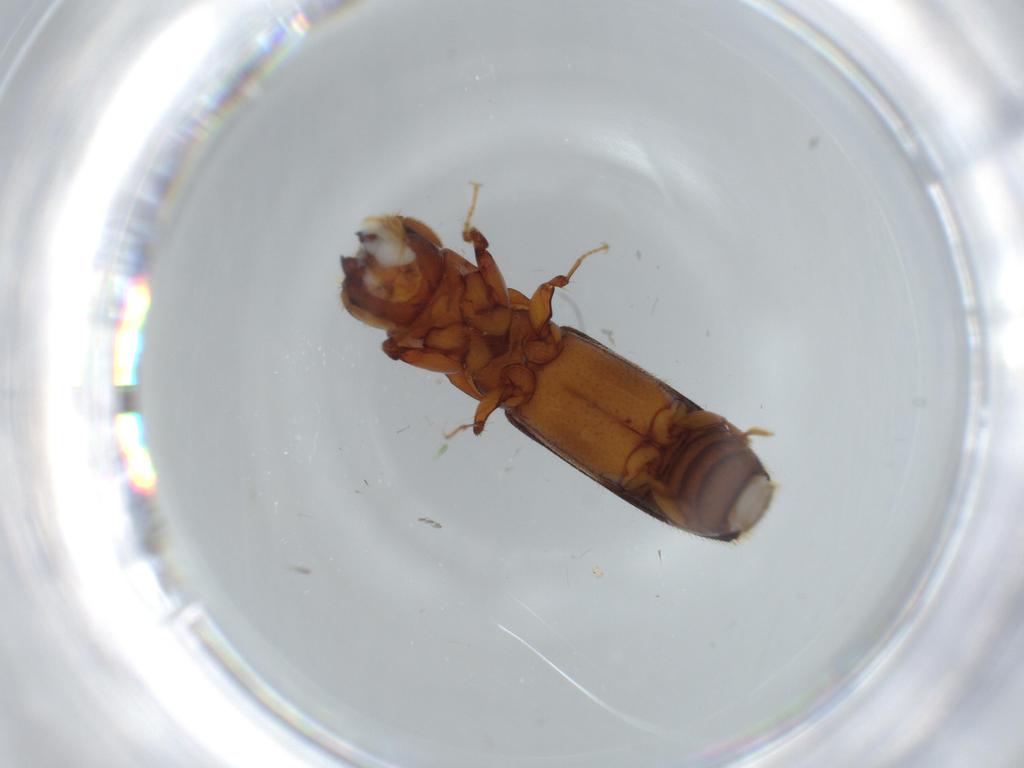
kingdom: Animalia
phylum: Arthropoda
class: Insecta
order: Coleoptera
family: Curculionidae
